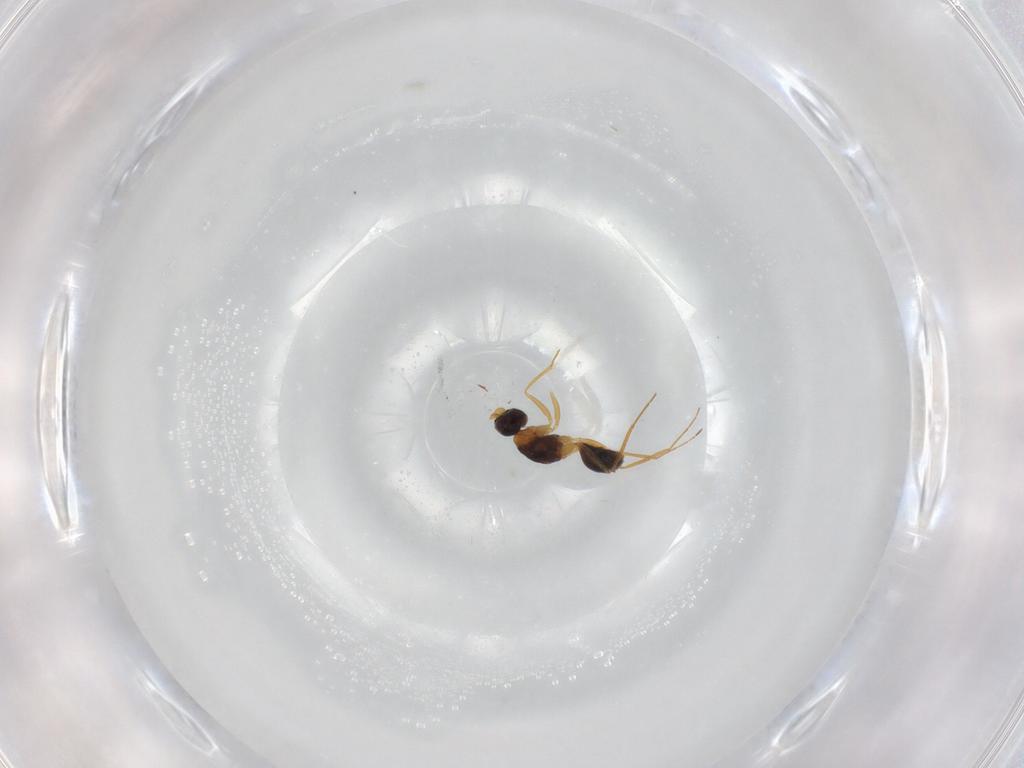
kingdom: Animalia
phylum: Arthropoda
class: Insecta
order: Hymenoptera
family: Mymaridae
